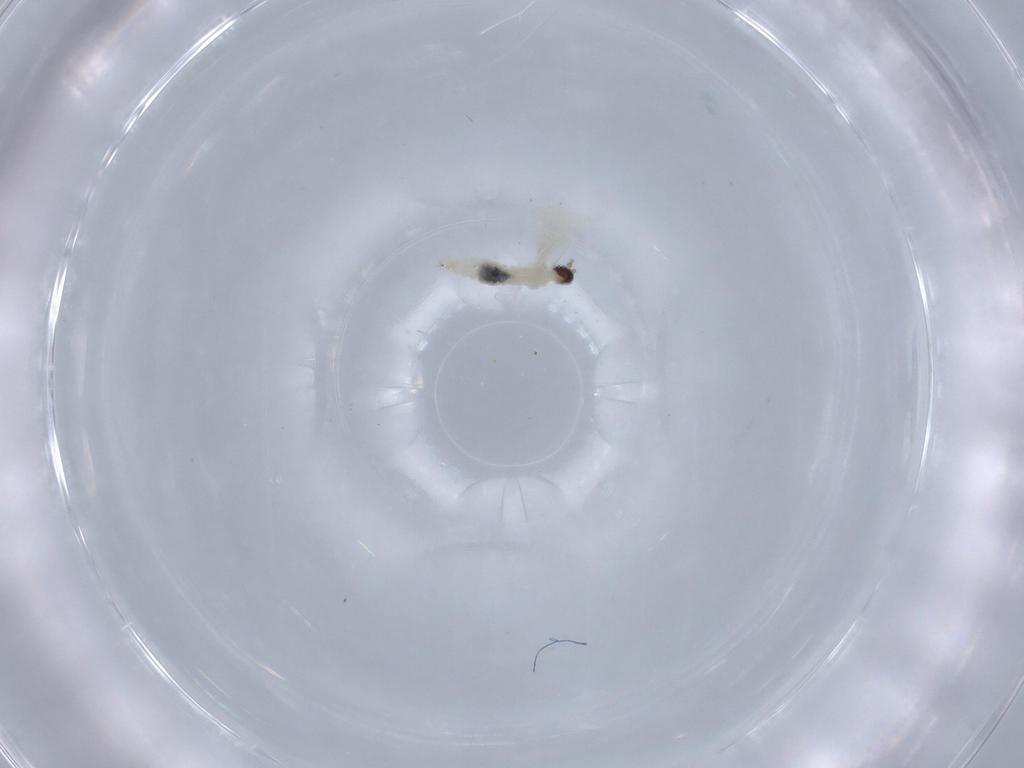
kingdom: Animalia
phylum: Arthropoda
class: Insecta
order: Diptera
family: Cecidomyiidae
